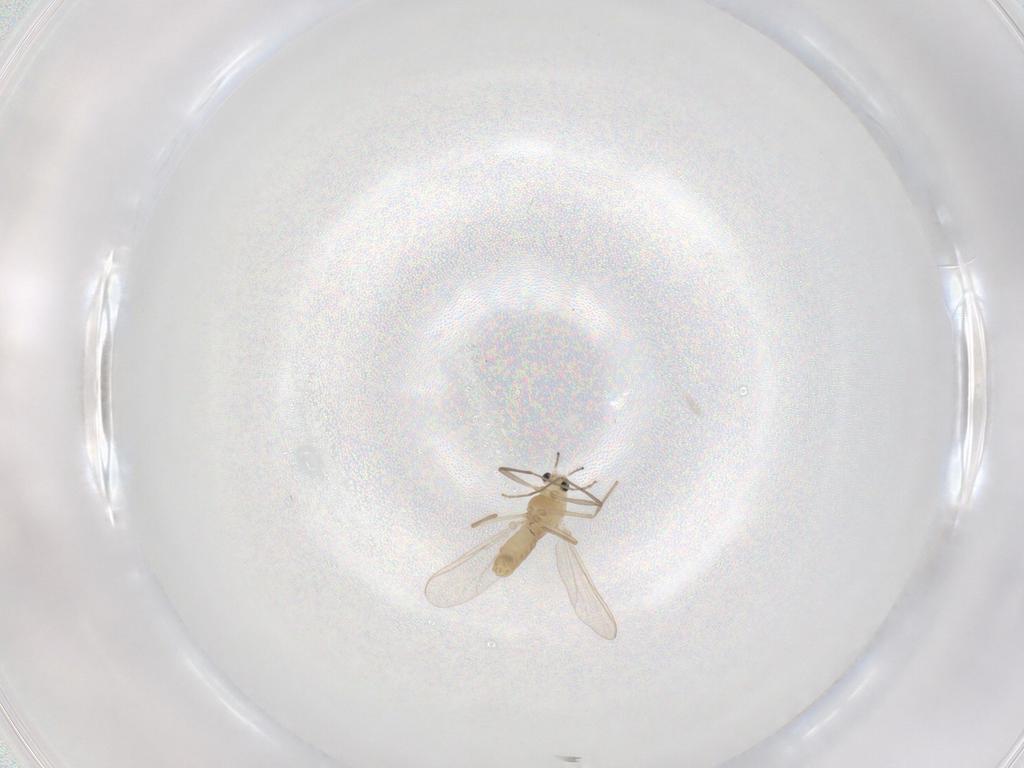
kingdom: Animalia
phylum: Arthropoda
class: Insecta
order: Diptera
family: Chironomidae
